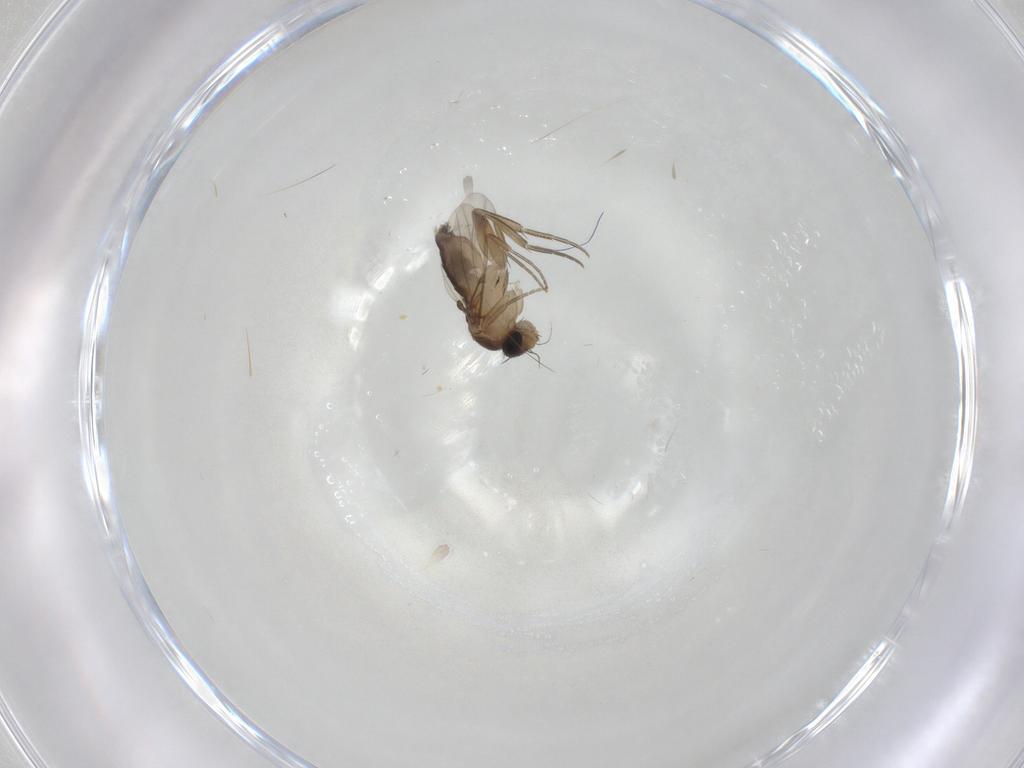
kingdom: Animalia
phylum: Arthropoda
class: Insecta
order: Diptera
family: Phoridae
